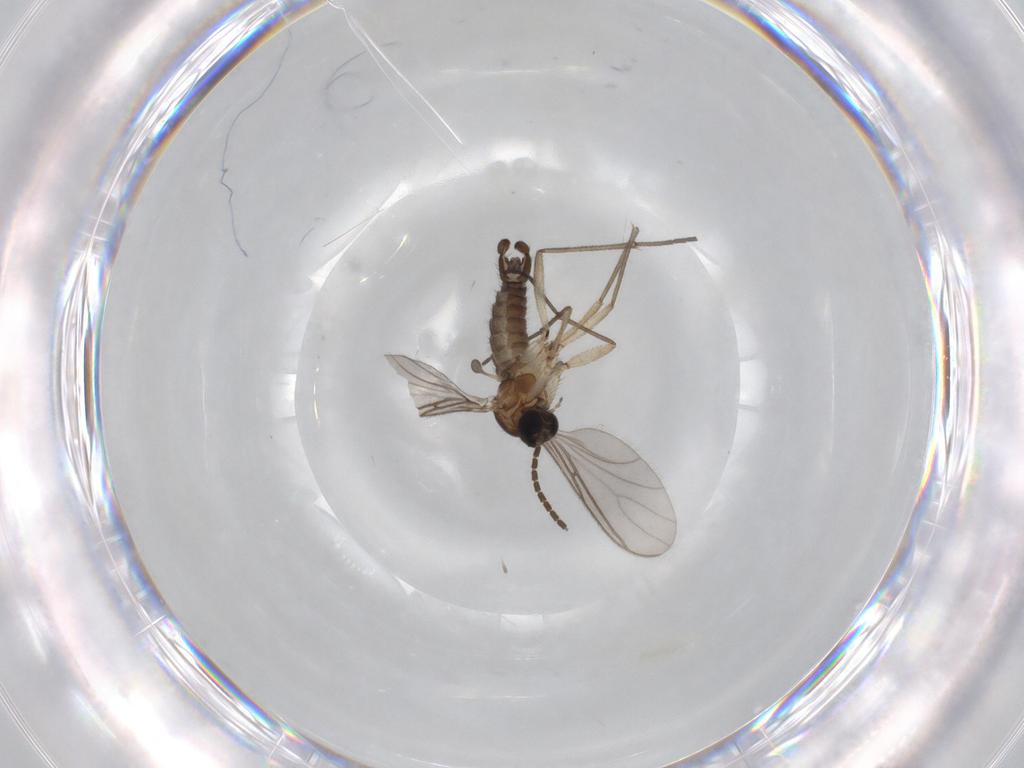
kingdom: Animalia
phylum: Arthropoda
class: Insecta
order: Diptera
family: Sciaridae
